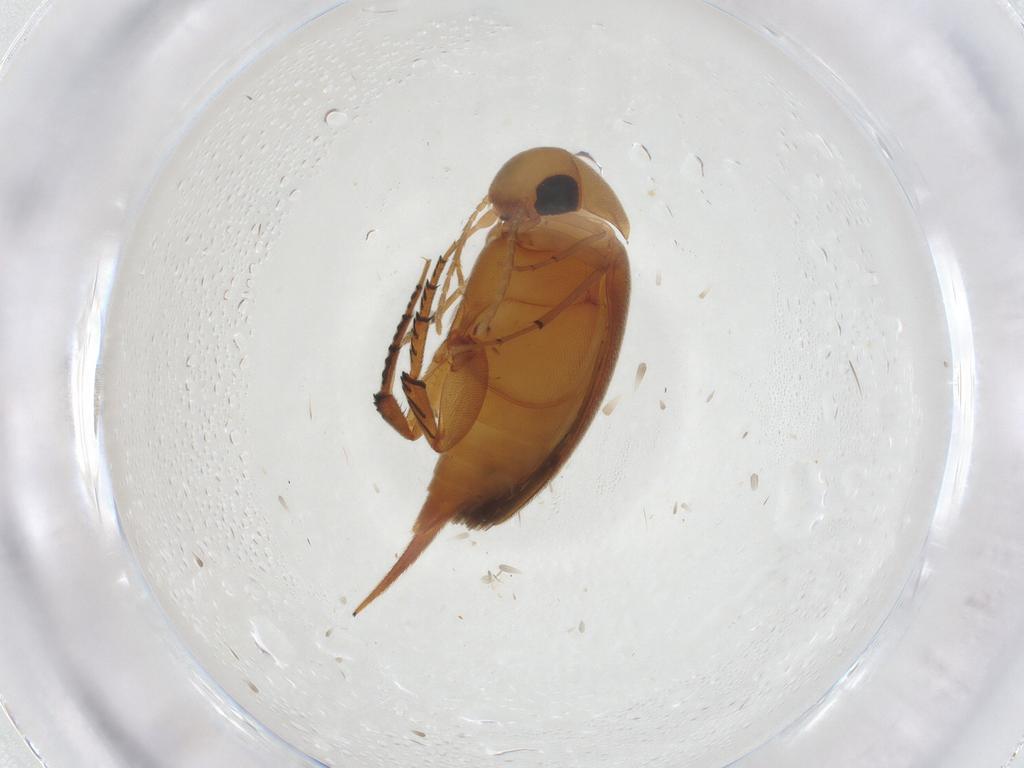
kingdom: Animalia
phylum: Arthropoda
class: Insecta
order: Coleoptera
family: Mordellidae
